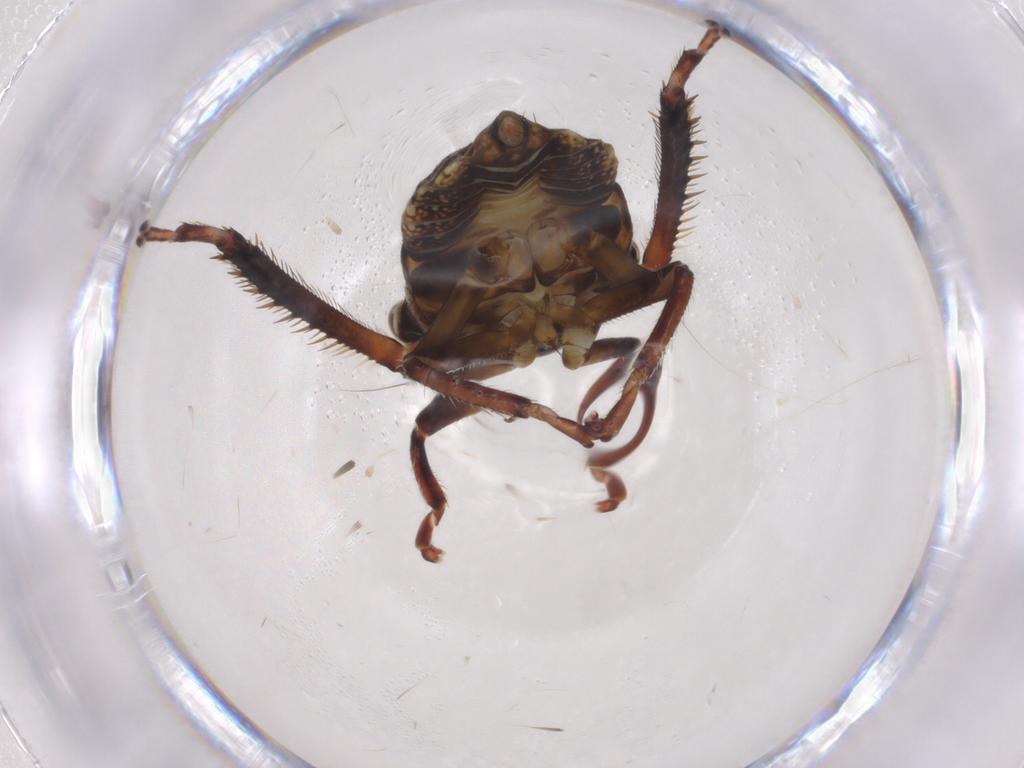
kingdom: Animalia
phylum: Arthropoda
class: Insecta
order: Hemiptera
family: Cicadellidae
